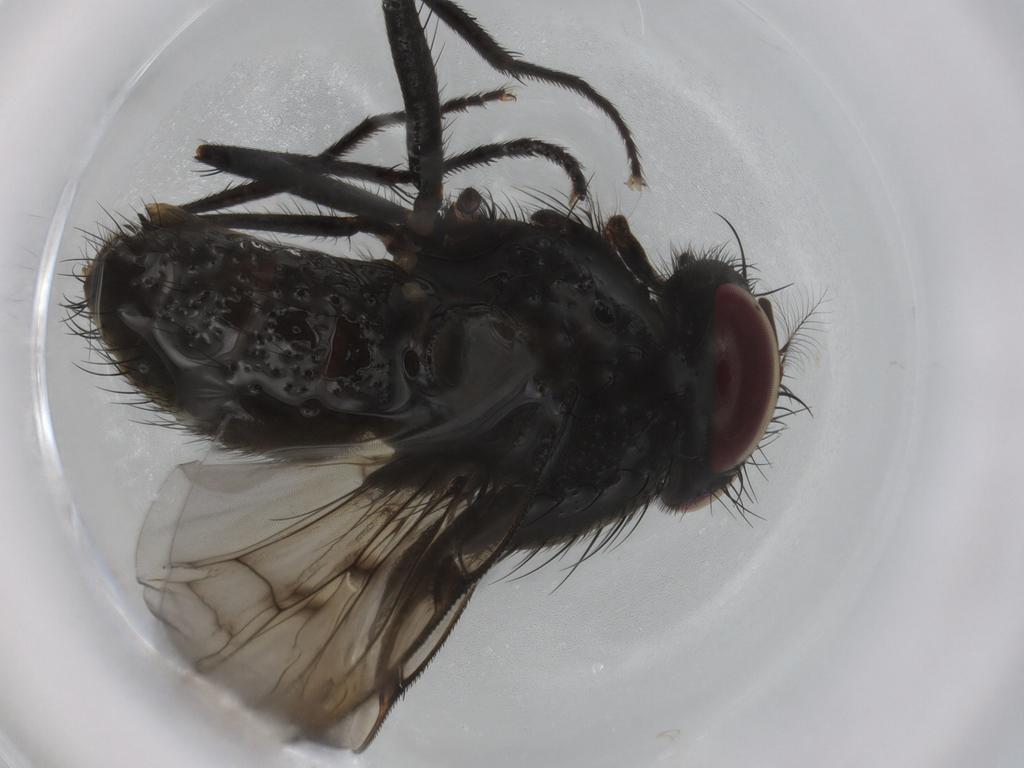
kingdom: Animalia
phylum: Arthropoda
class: Insecta
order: Diptera
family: Muscidae
